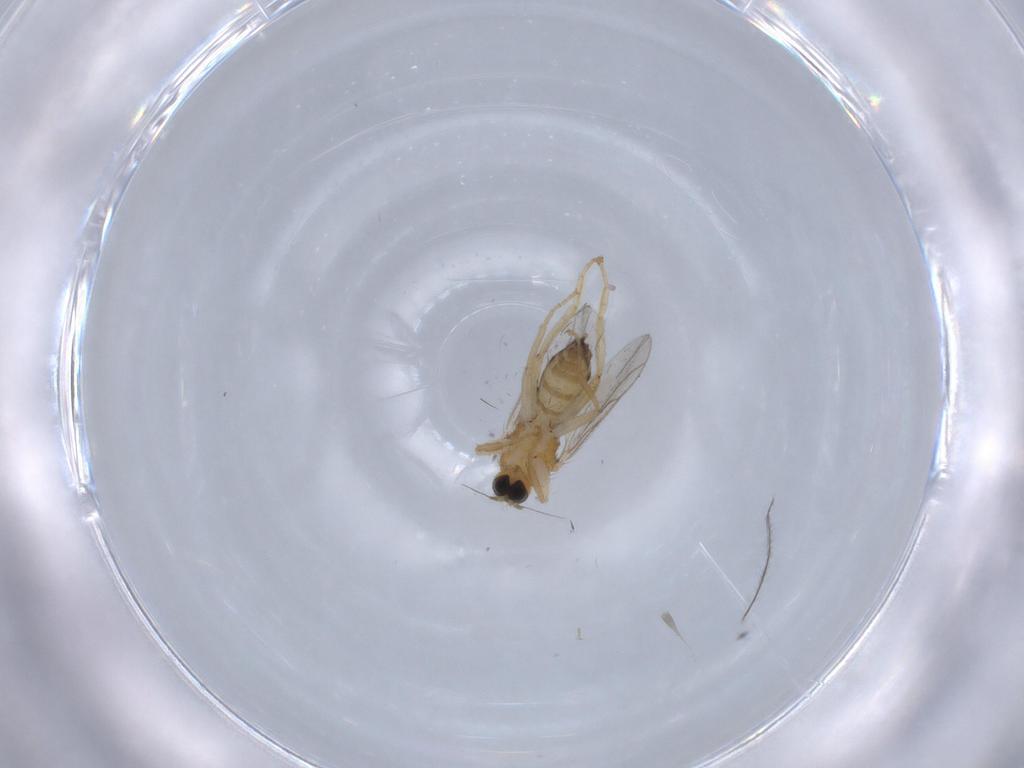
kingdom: Animalia
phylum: Arthropoda
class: Insecta
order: Diptera
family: Hybotidae
